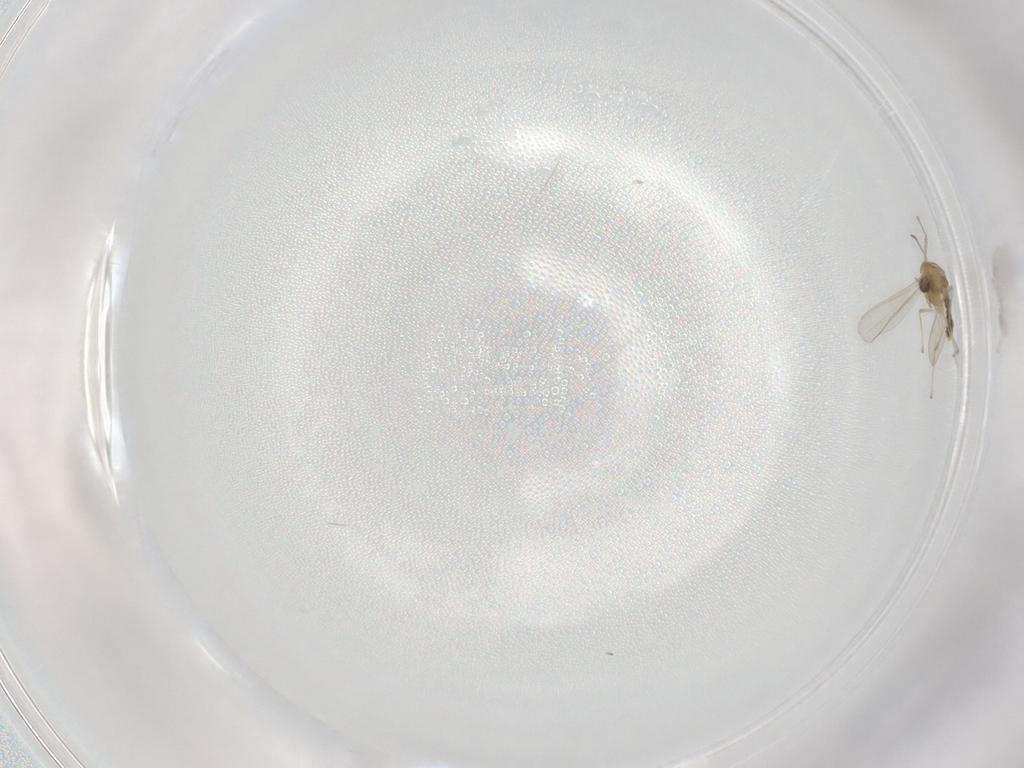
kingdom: Animalia
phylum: Arthropoda
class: Insecta
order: Diptera
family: Chironomidae
